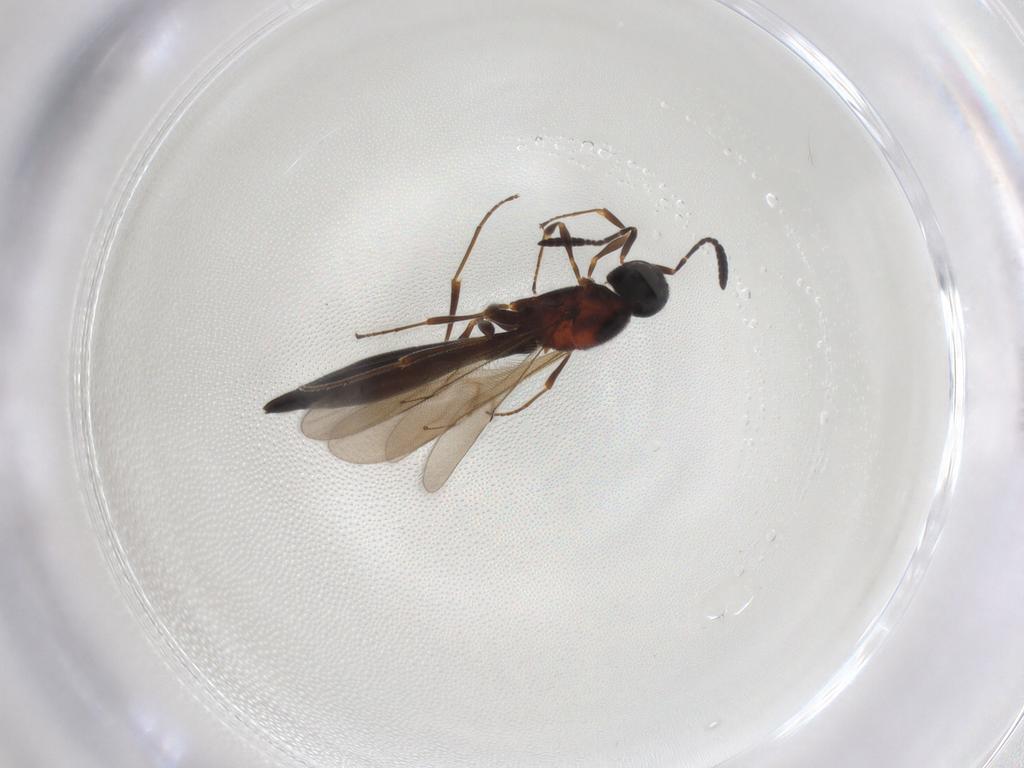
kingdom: Animalia
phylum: Arthropoda
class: Insecta
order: Hymenoptera
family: Scelionidae
